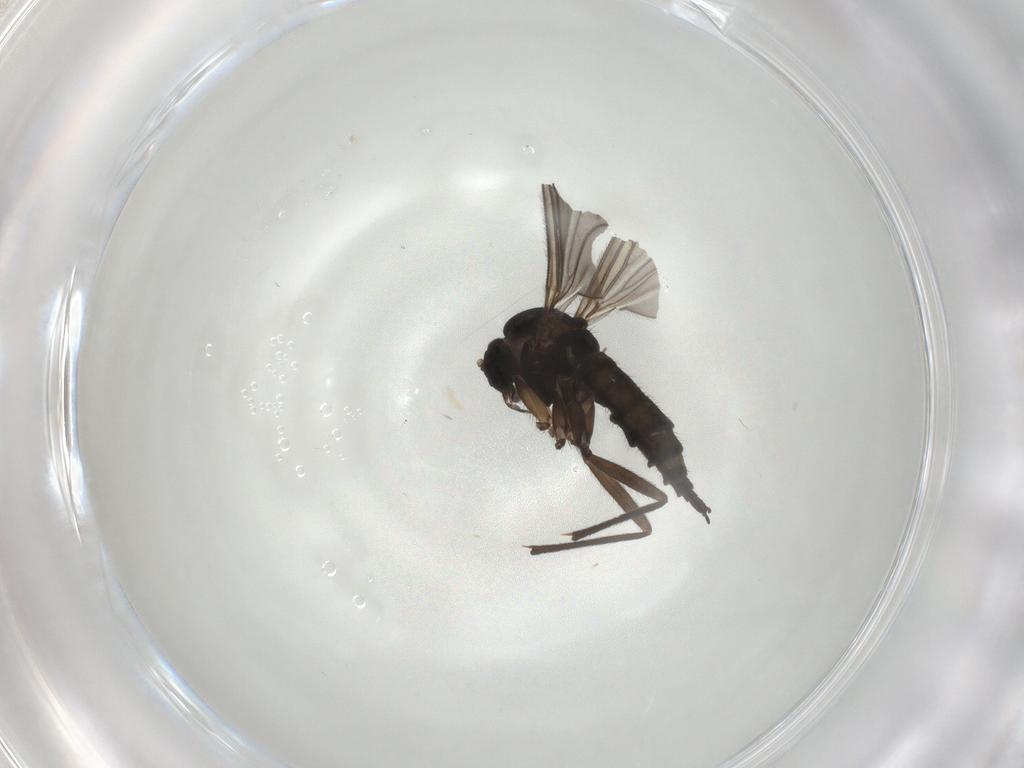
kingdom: Animalia
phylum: Arthropoda
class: Insecta
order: Diptera
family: Sciaridae
